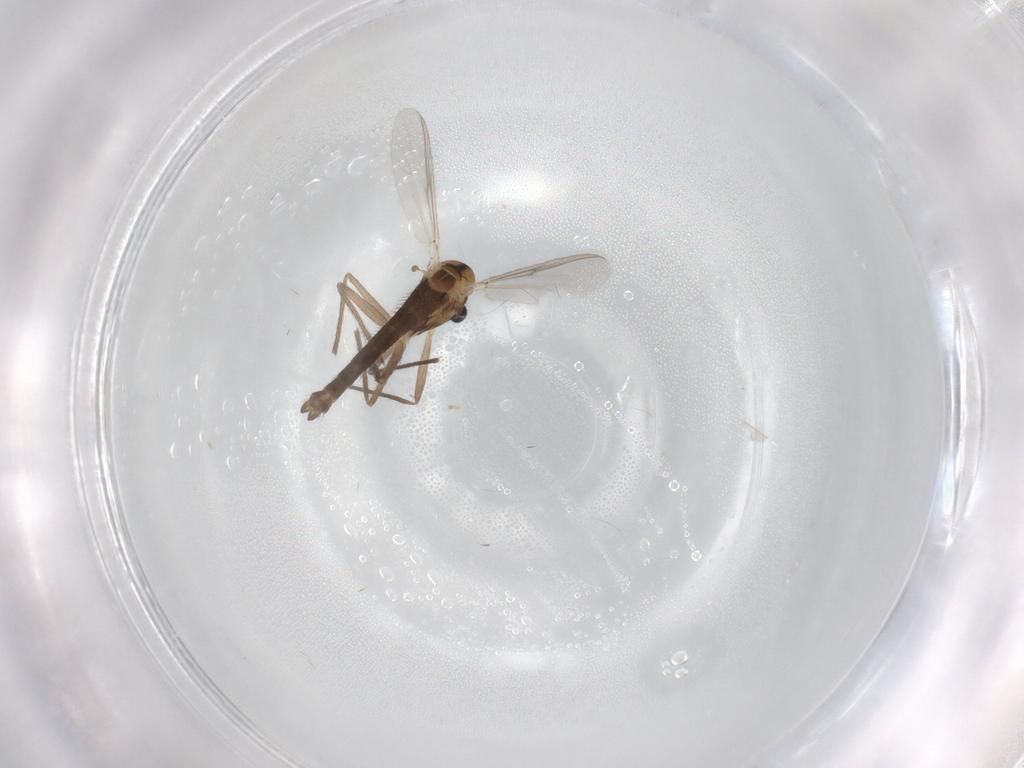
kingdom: Animalia
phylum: Arthropoda
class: Insecta
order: Diptera
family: Chironomidae
